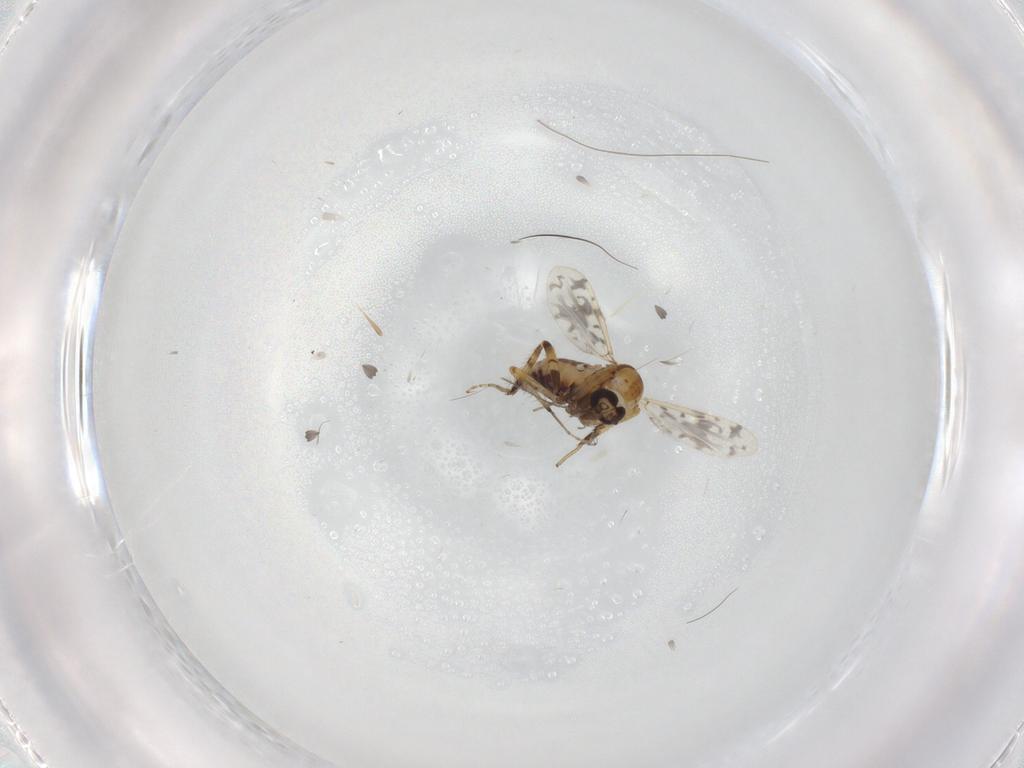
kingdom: Animalia
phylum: Arthropoda
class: Insecta
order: Diptera
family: Ceratopogonidae
